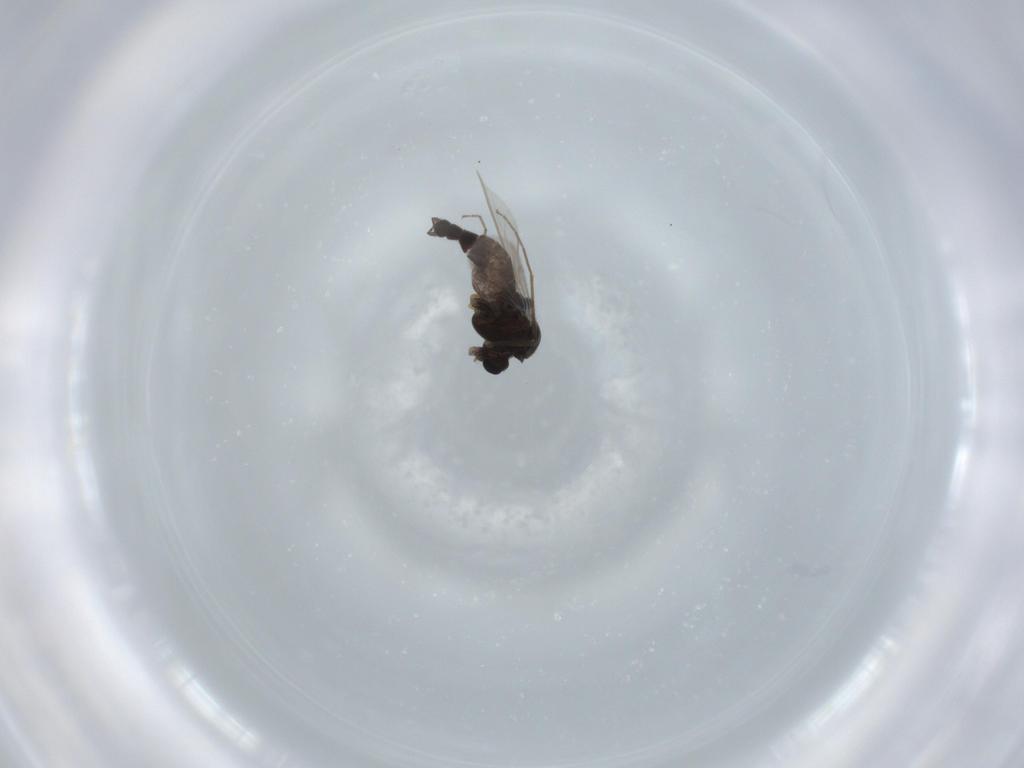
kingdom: Animalia
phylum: Arthropoda
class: Insecta
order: Diptera
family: Chironomidae
